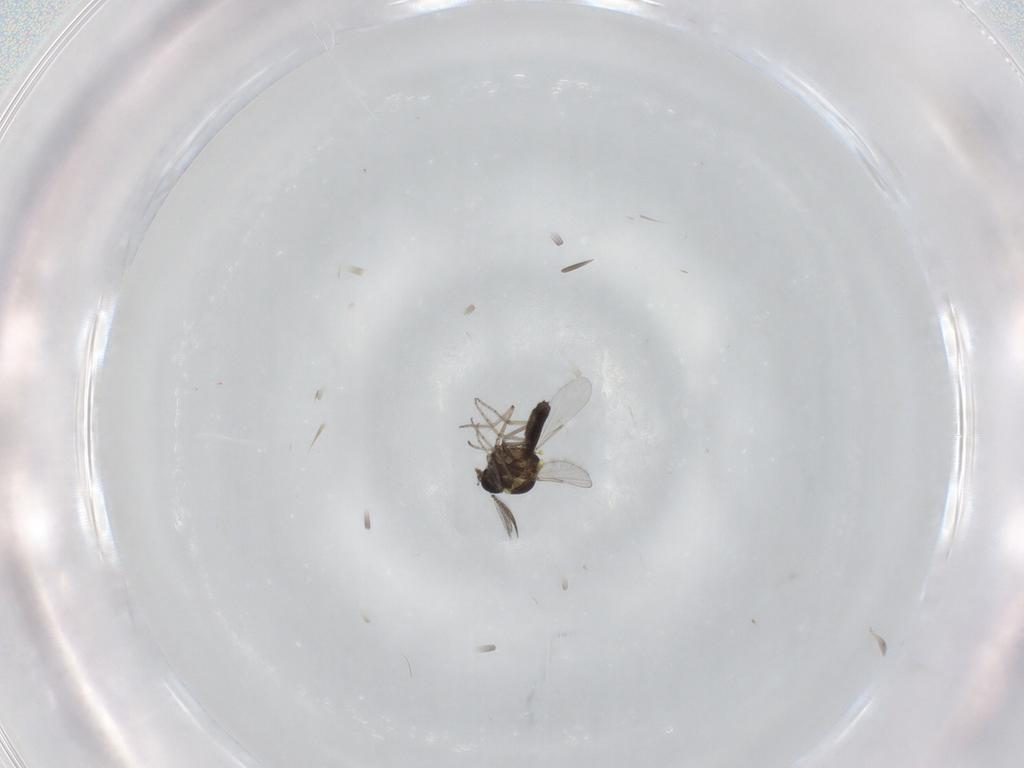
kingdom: Animalia
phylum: Arthropoda
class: Insecta
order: Diptera
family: Ceratopogonidae
